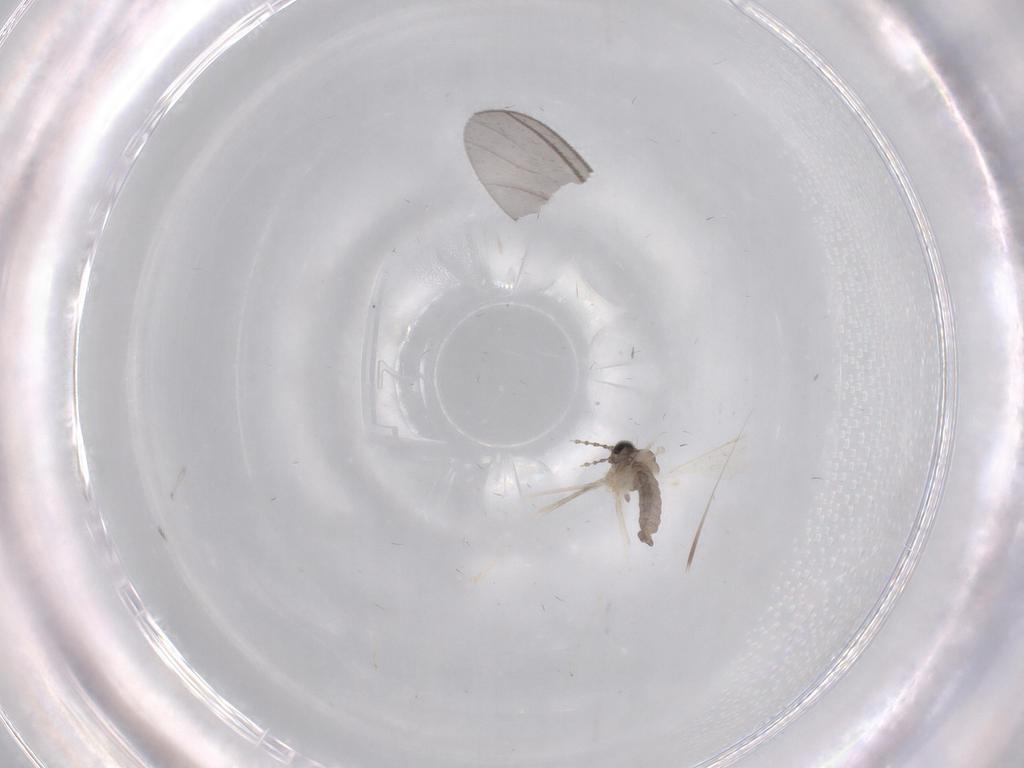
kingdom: Animalia
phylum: Arthropoda
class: Insecta
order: Diptera
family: Cecidomyiidae
